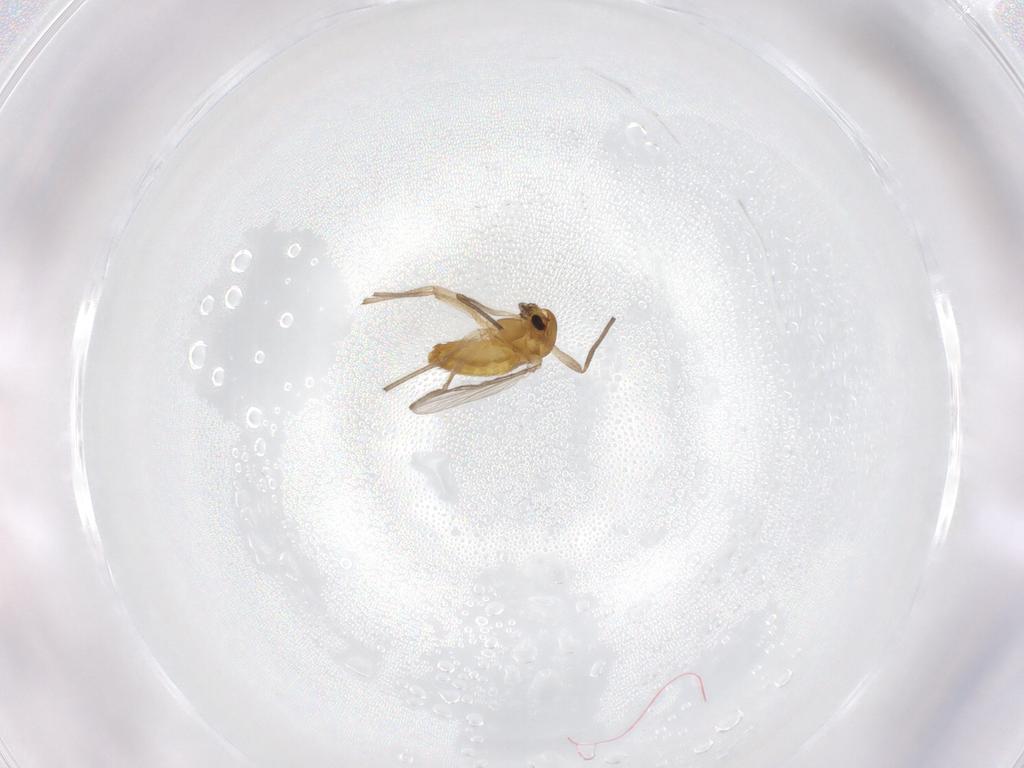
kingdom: Animalia
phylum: Arthropoda
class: Insecta
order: Diptera
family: Chironomidae
